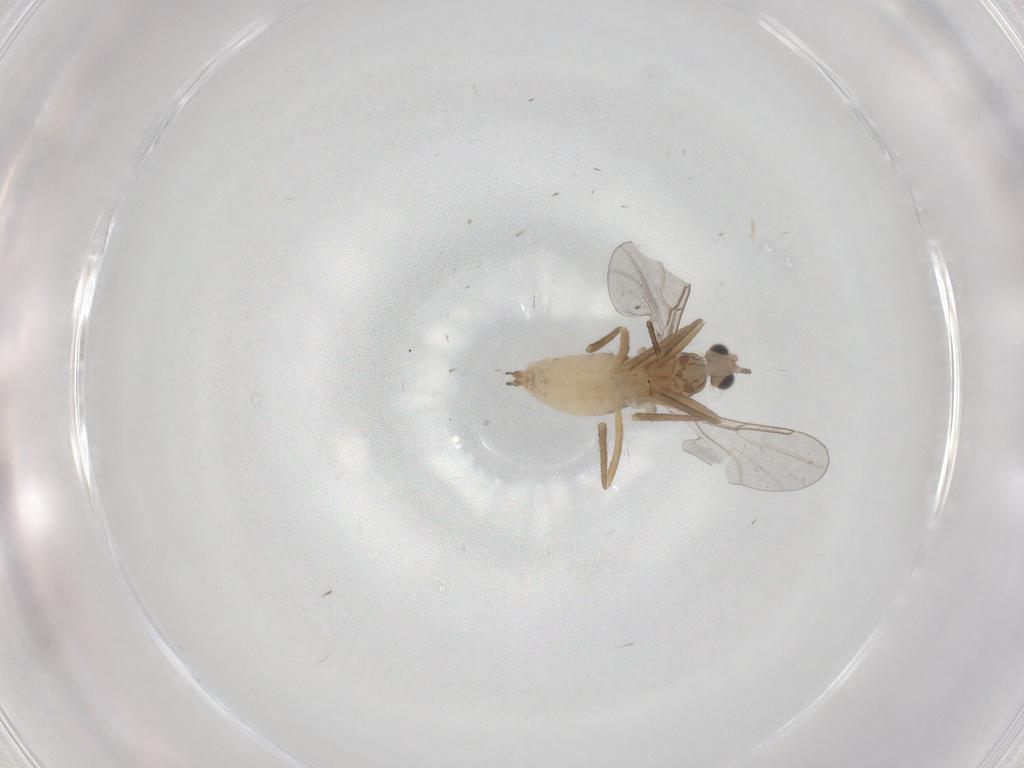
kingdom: Animalia
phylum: Arthropoda
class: Insecta
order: Diptera
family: Cecidomyiidae
